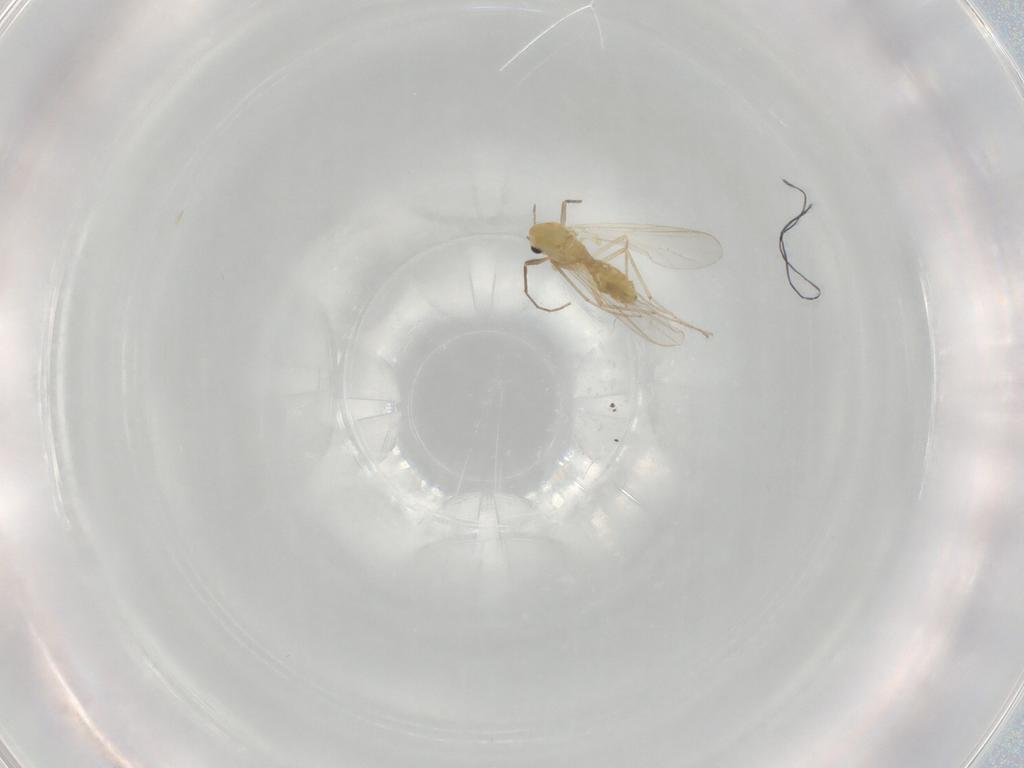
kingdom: Animalia
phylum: Arthropoda
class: Insecta
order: Diptera
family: Chironomidae
